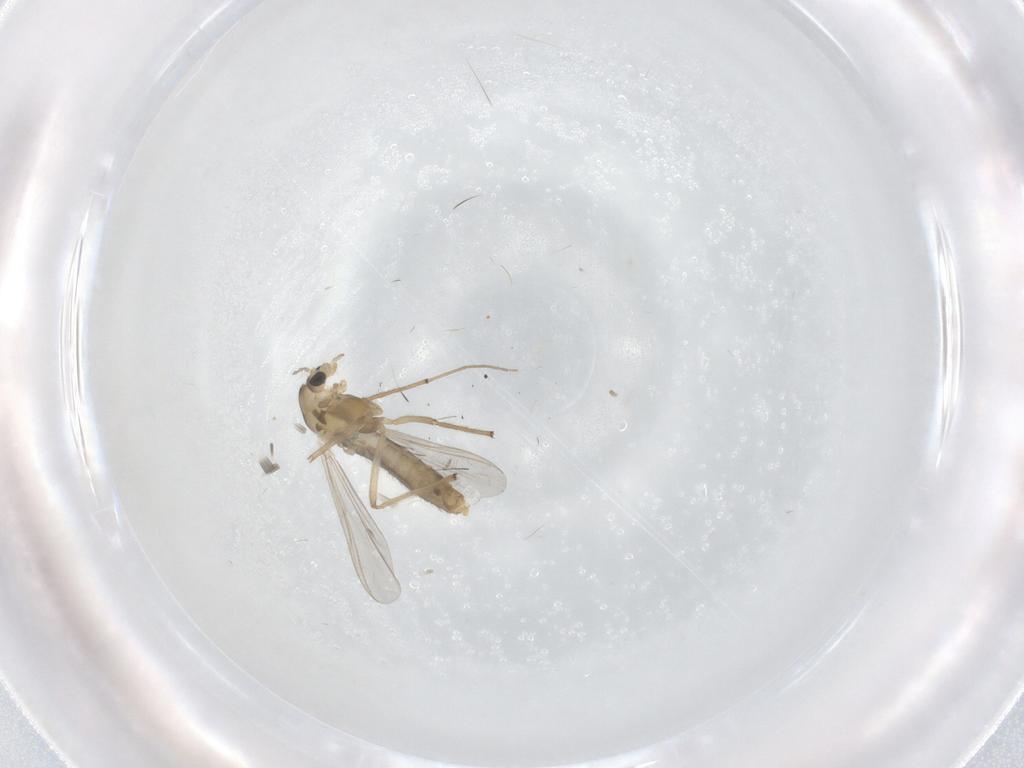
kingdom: Animalia
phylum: Arthropoda
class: Insecta
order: Diptera
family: Chironomidae
